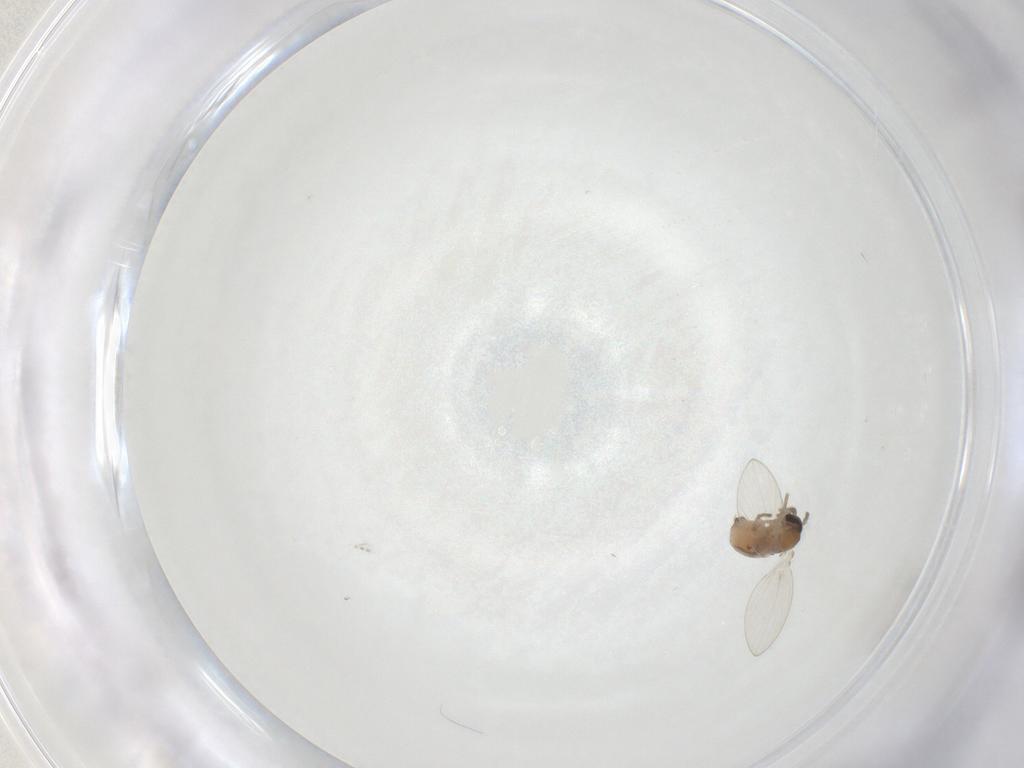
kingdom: Animalia
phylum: Arthropoda
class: Insecta
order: Diptera
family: Psychodidae
